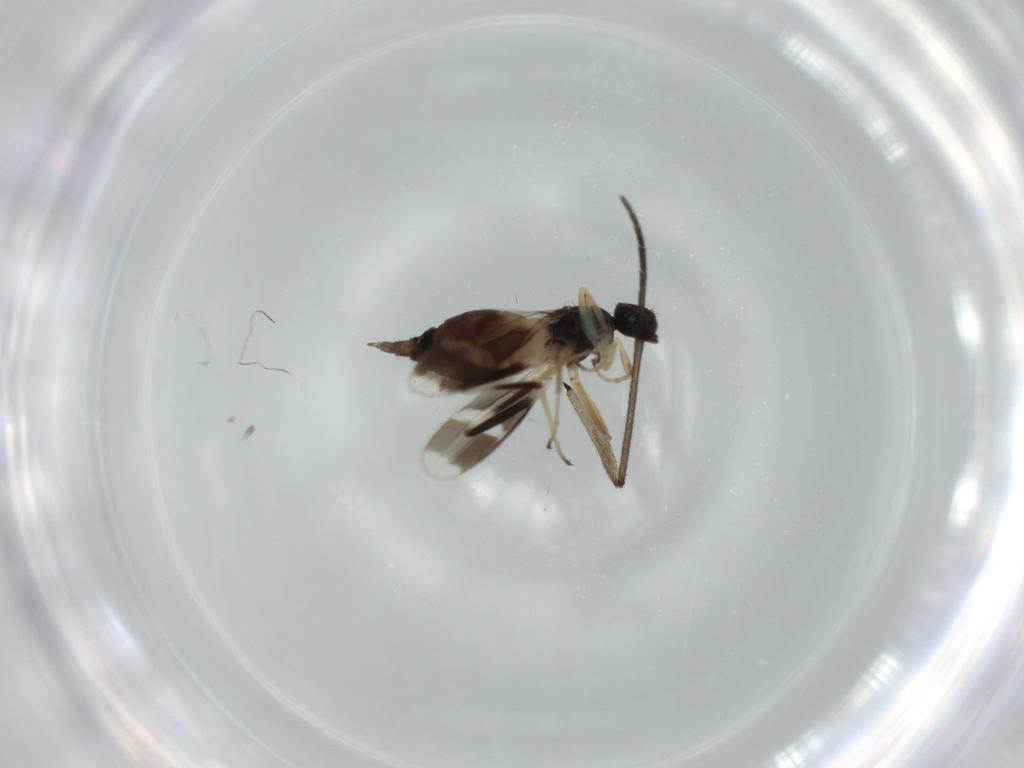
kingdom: Animalia
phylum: Arthropoda
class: Insecta
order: Diptera
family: Hybotidae
